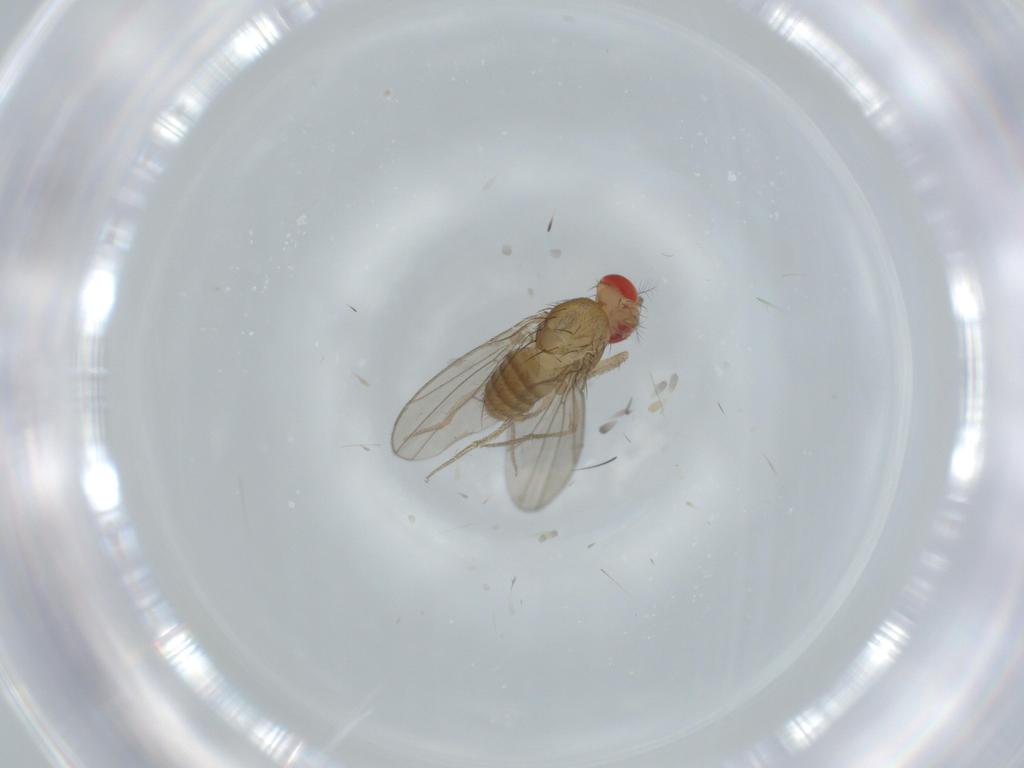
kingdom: Animalia
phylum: Arthropoda
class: Insecta
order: Diptera
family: Drosophilidae
